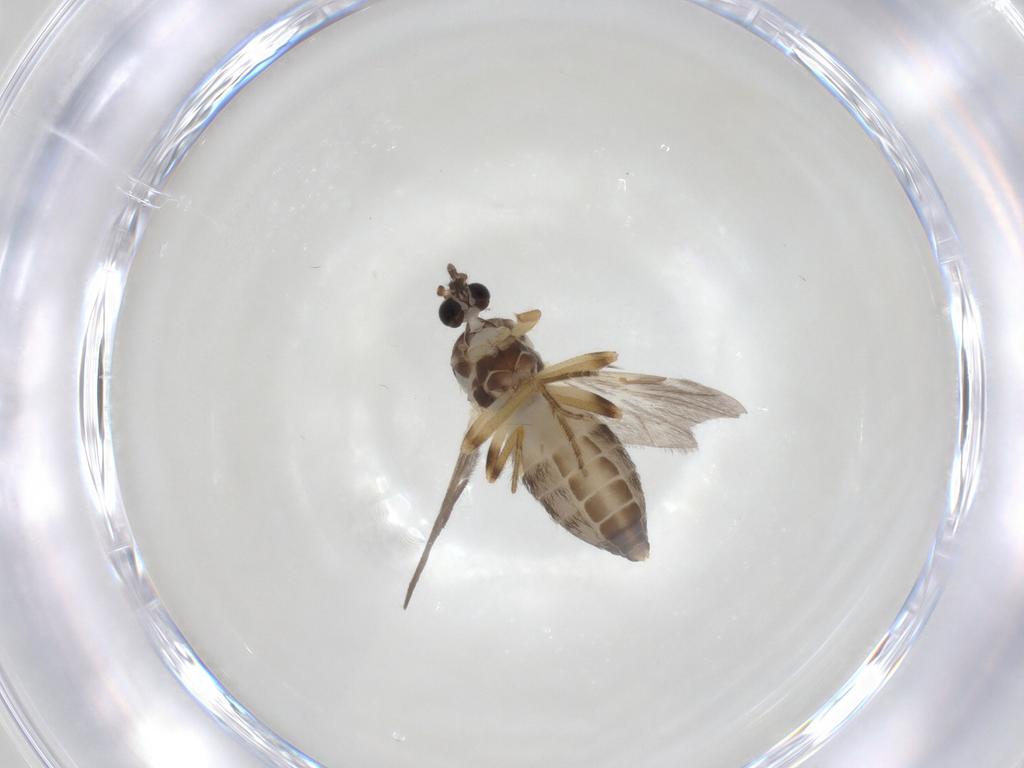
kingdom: Animalia
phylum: Arthropoda
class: Insecta
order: Diptera
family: Ceratopogonidae
